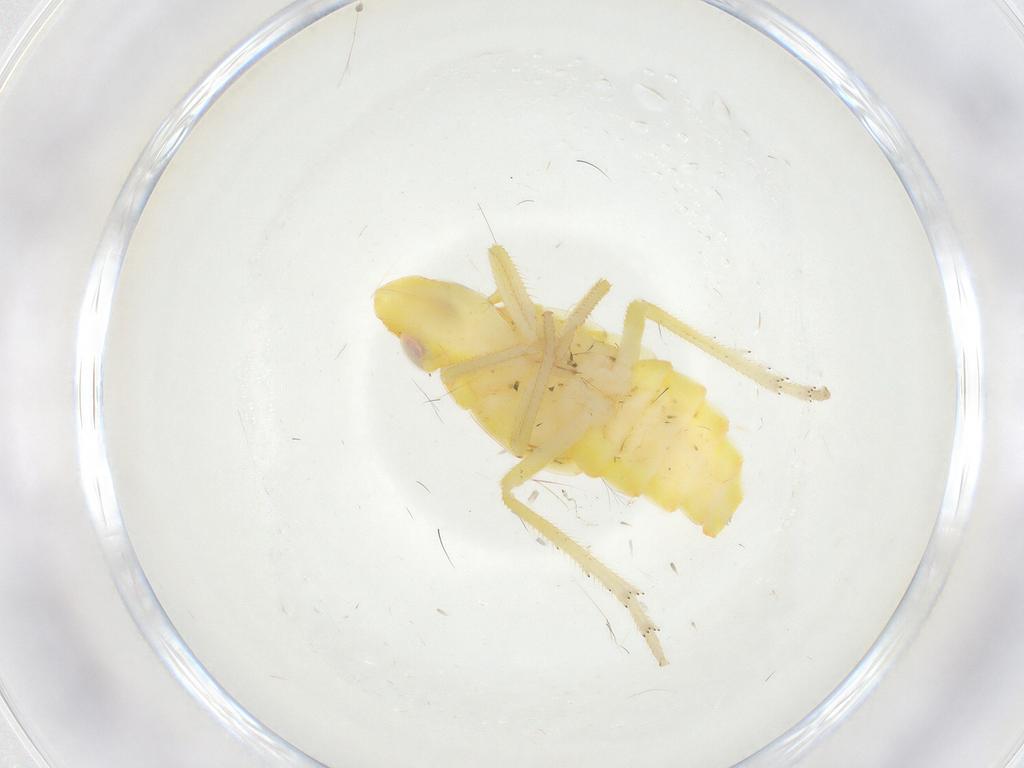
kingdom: Animalia
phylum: Arthropoda
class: Insecta
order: Hemiptera
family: Tropiduchidae
